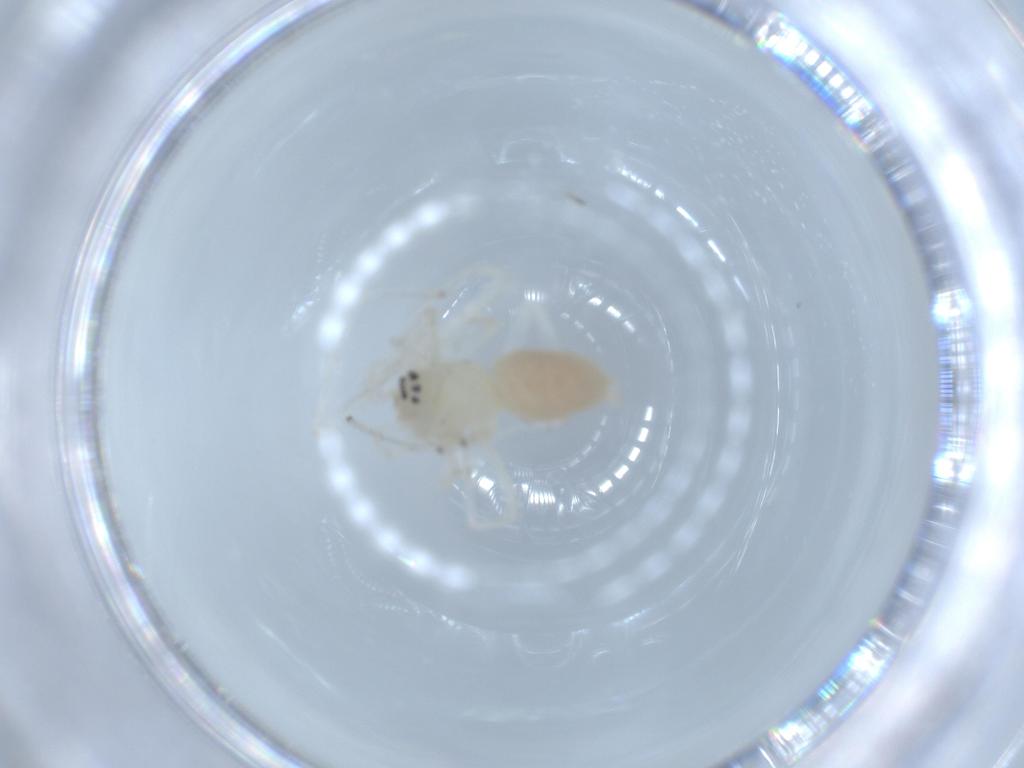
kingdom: Animalia
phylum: Arthropoda
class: Arachnida
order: Araneae
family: Anyphaenidae
